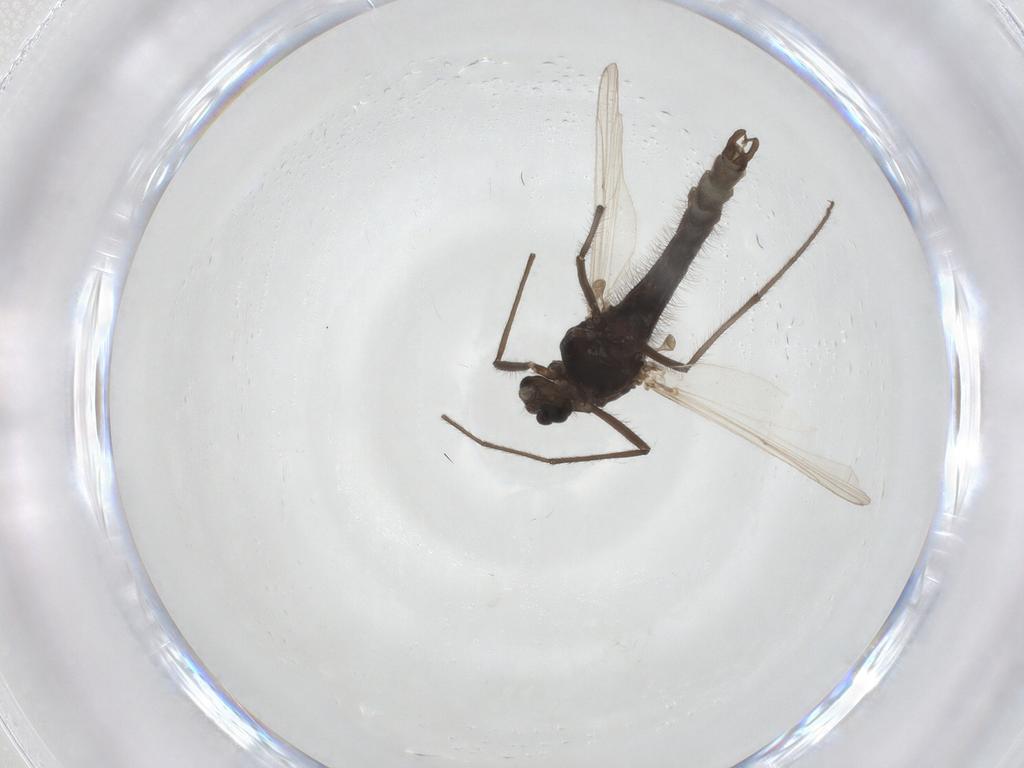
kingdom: Animalia
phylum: Arthropoda
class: Insecta
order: Diptera
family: Chironomidae
